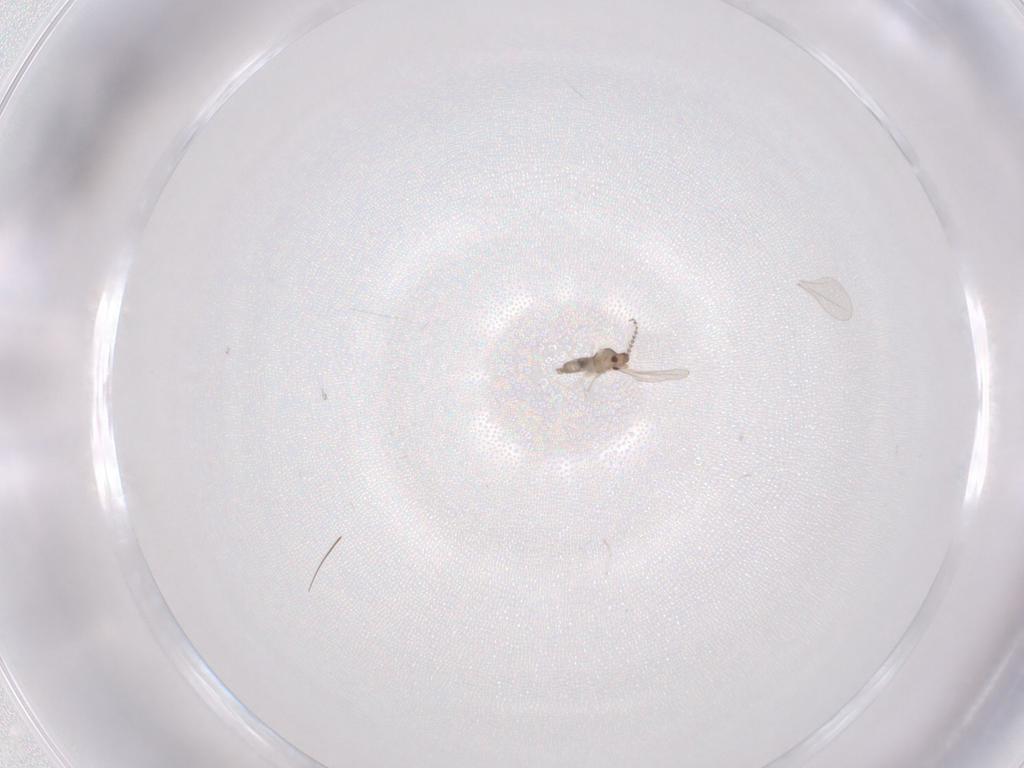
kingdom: Animalia
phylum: Arthropoda
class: Insecta
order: Diptera
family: Cecidomyiidae
